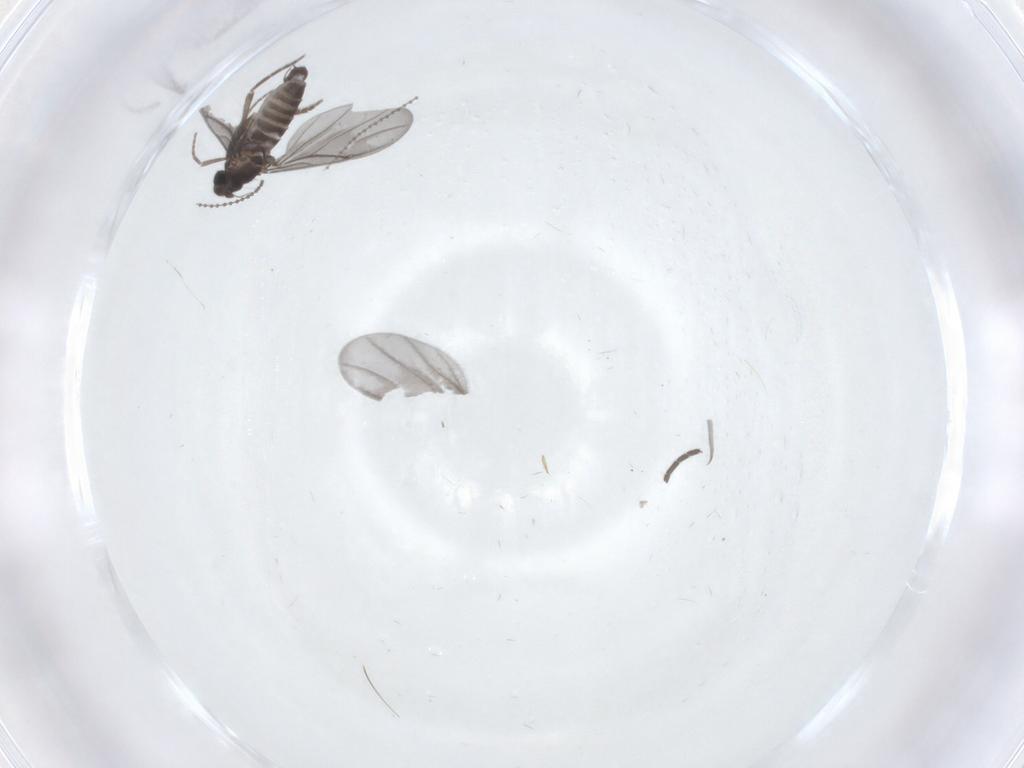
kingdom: Animalia
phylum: Arthropoda
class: Insecta
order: Diptera
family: Phoridae
